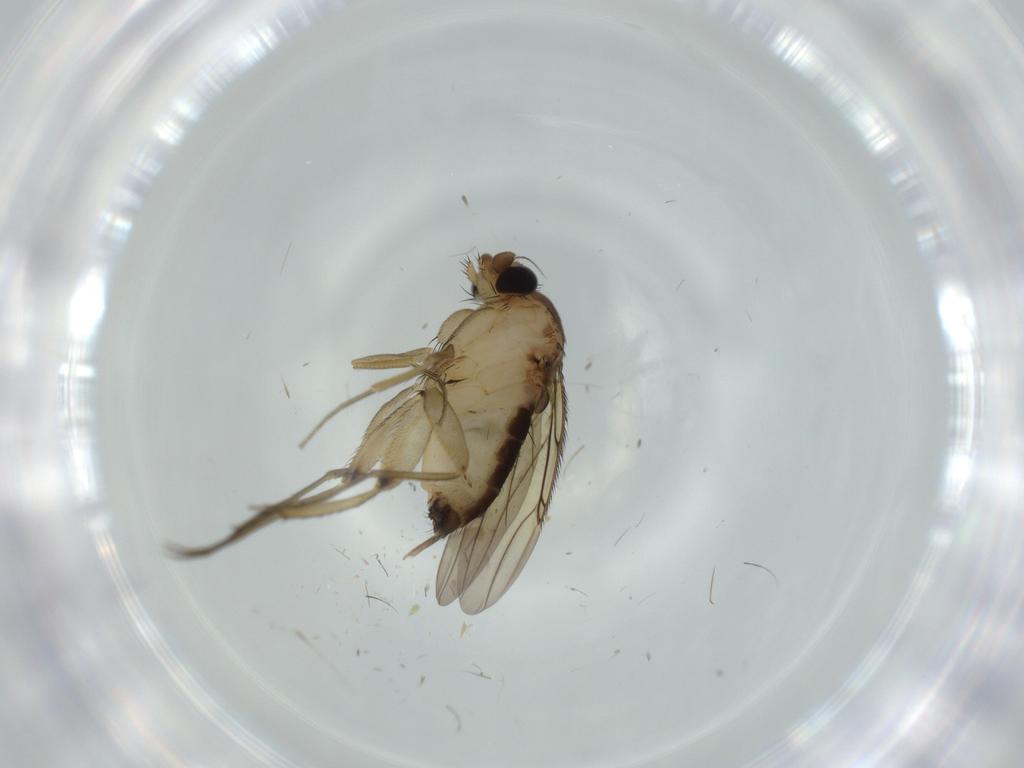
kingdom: Animalia
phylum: Arthropoda
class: Insecta
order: Diptera
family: Phoridae
